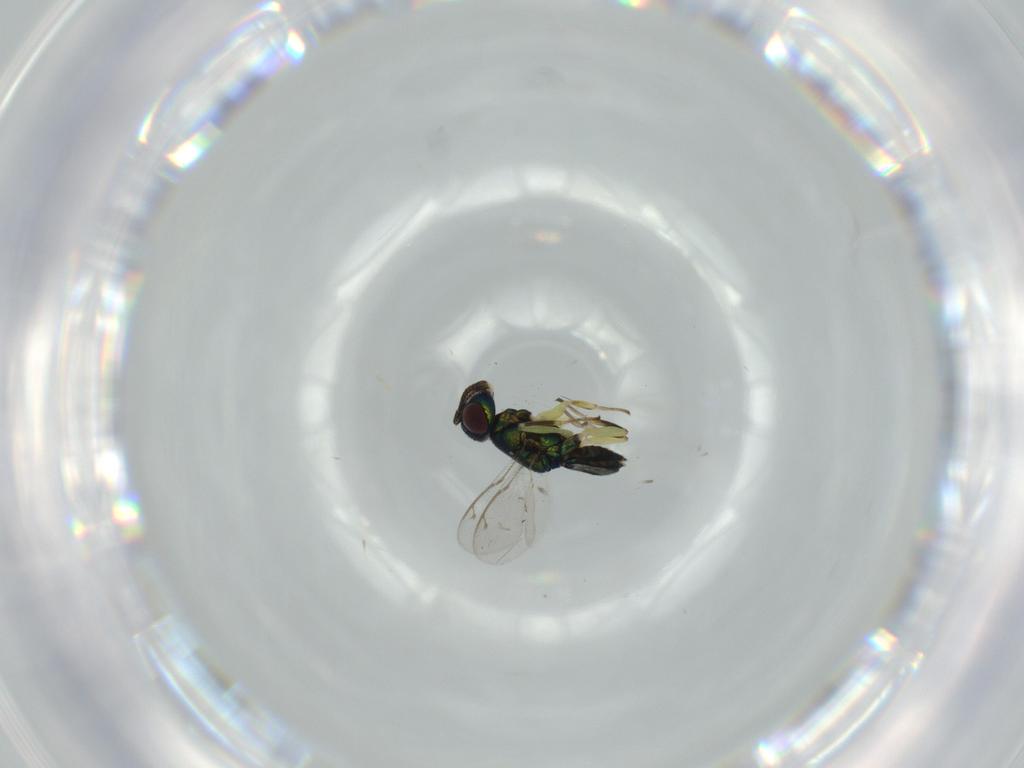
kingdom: Animalia
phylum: Arthropoda
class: Insecta
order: Hymenoptera
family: Eupelmidae
